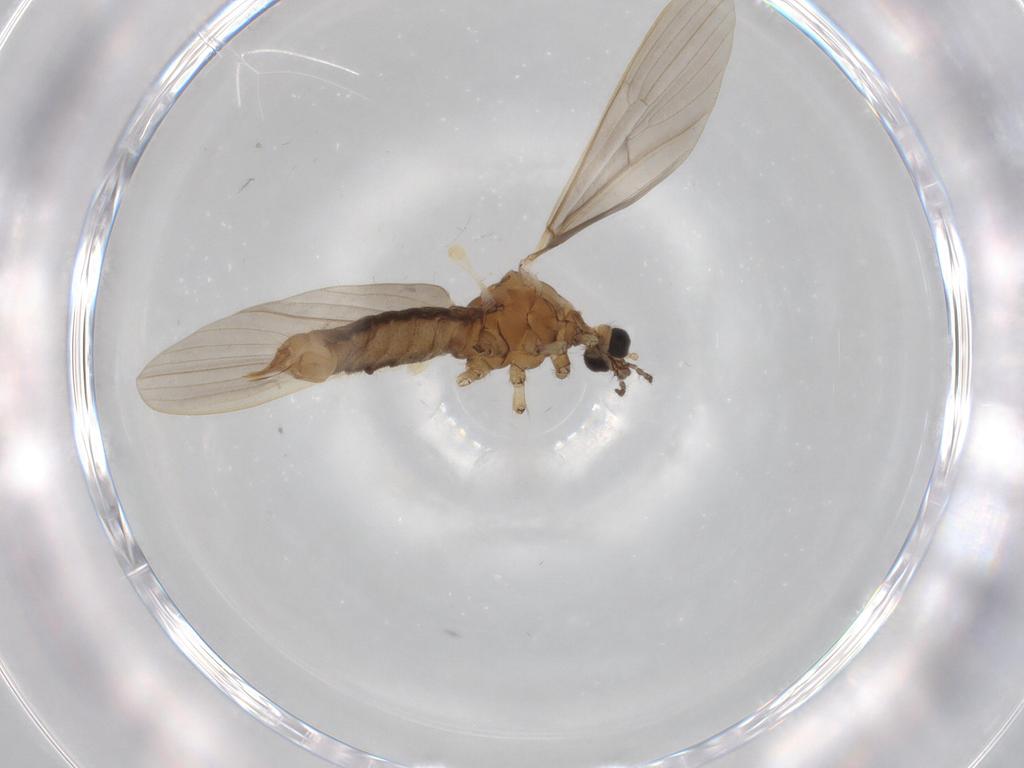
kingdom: Animalia
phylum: Arthropoda
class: Insecta
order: Diptera
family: Limoniidae
